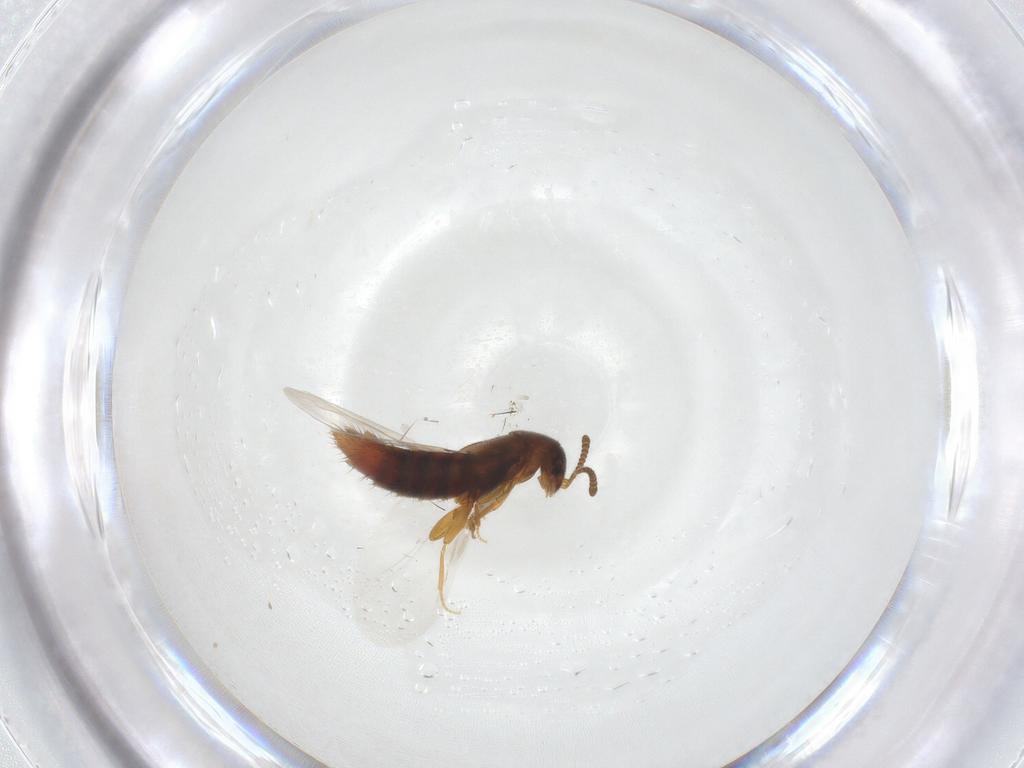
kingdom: Animalia
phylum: Arthropoda
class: Insecta
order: Coleoptera
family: Staphylinidae
